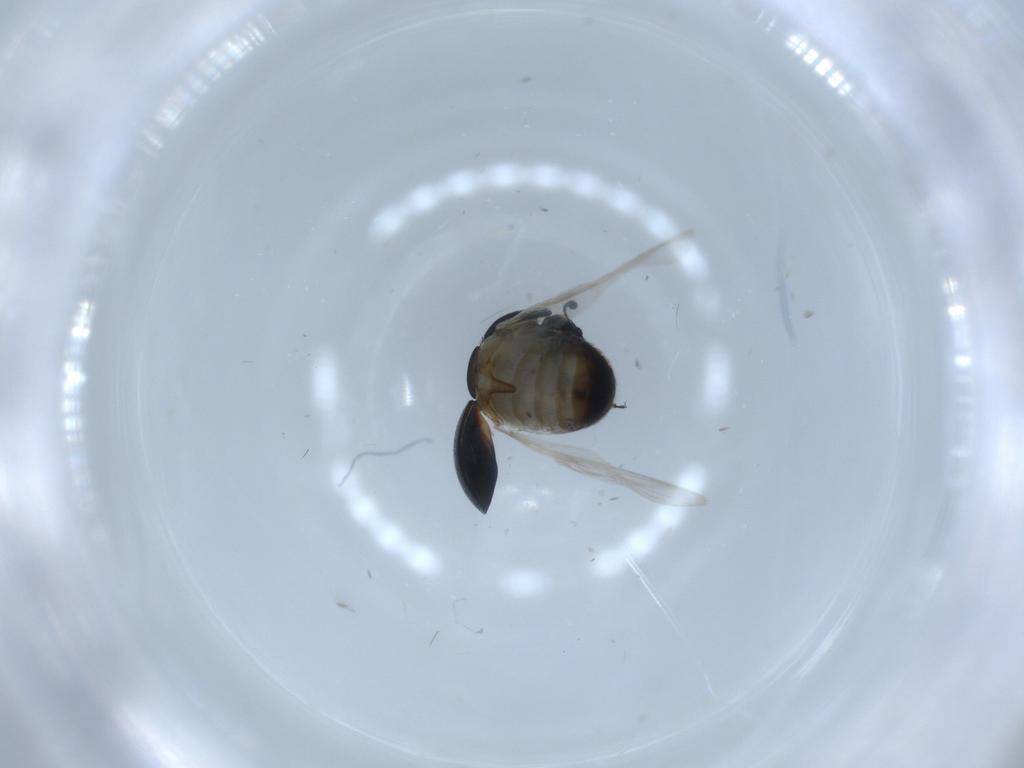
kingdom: Animalia
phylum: Arthropoda
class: Insecta
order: Coleoptera
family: Cybocephalidae
